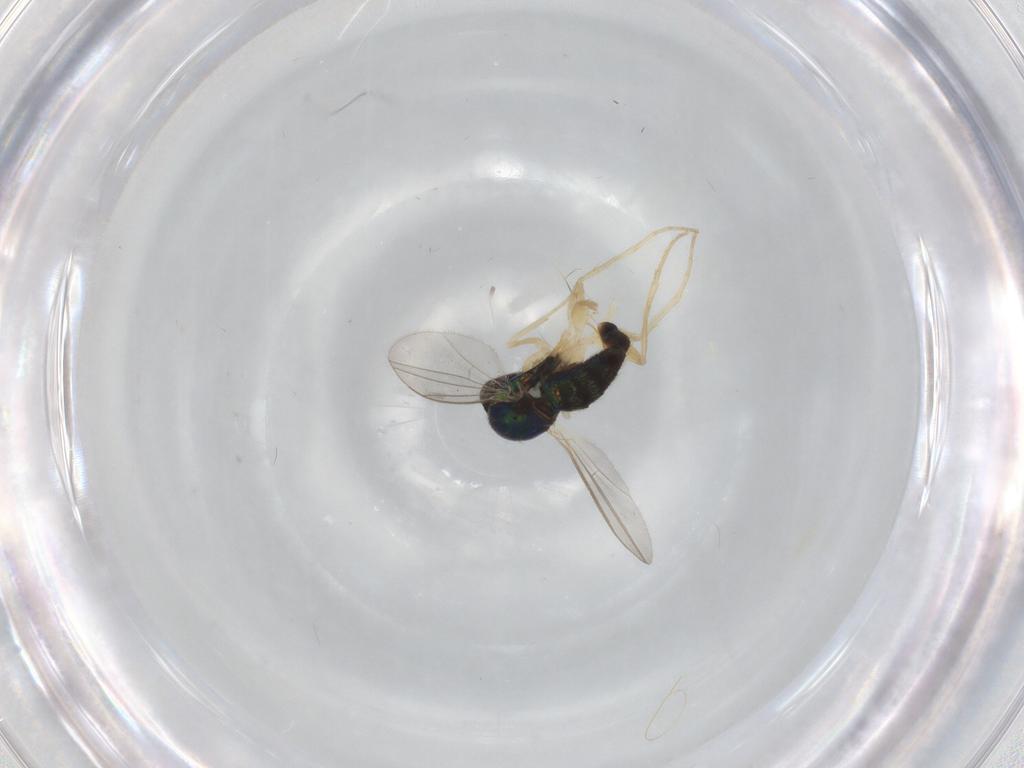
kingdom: Animalia
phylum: Arthropoda
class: Insecta
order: Diptera
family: Dolichopodidae
